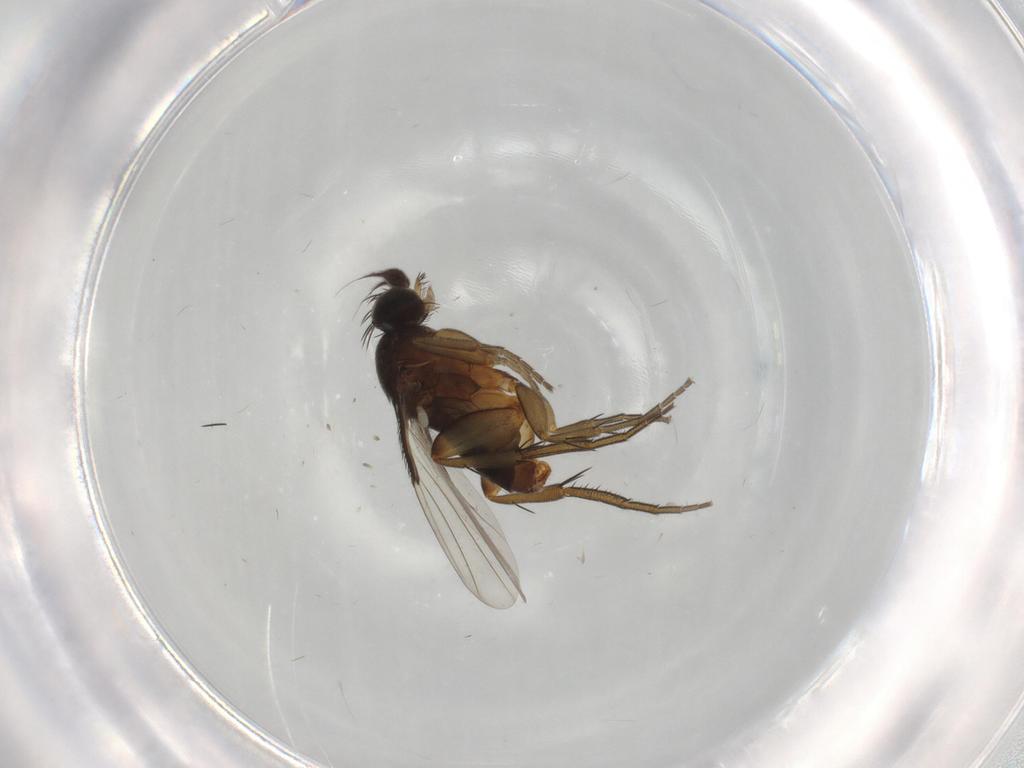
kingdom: Animalia
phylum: Arthropoda
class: Insecta
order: Diptera
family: Phoridae
